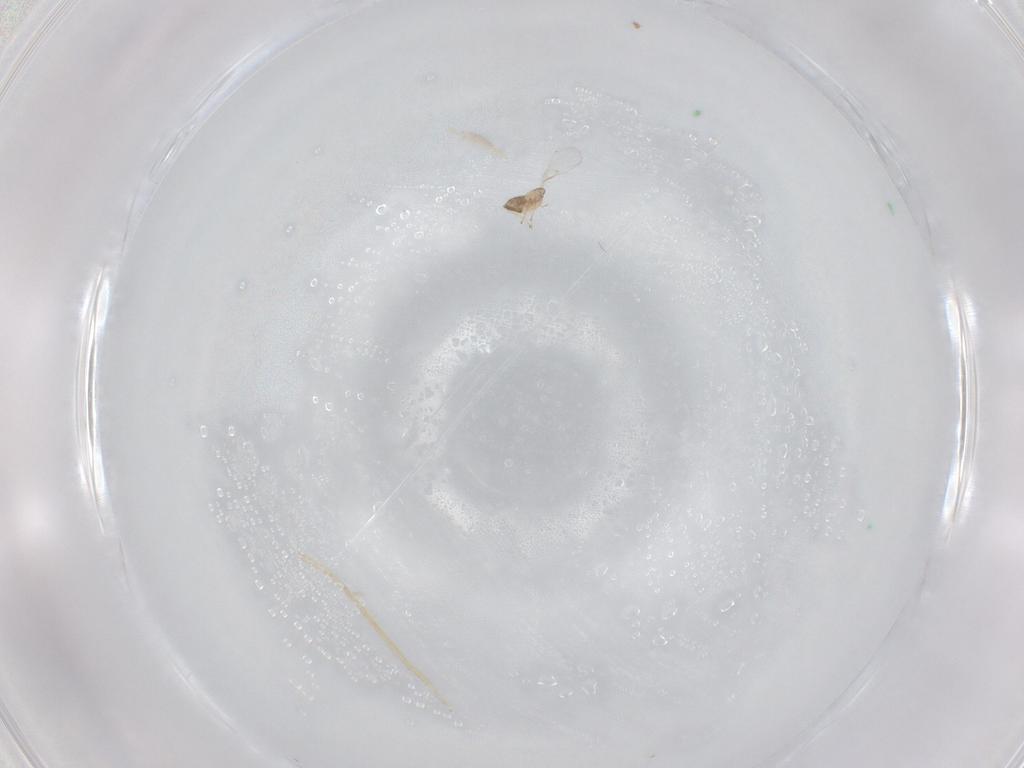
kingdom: Animalia
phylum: Arthropoda
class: Insecta
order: Hymenoptera
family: Trichogrammatidae
